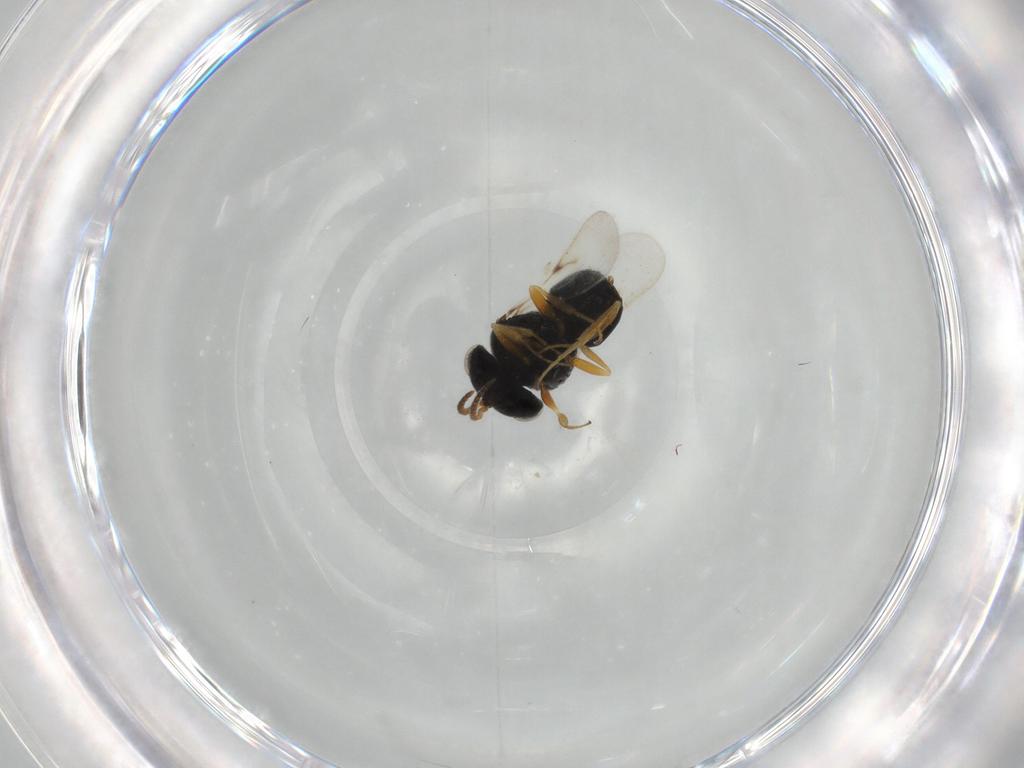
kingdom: Animalia
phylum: Arthropoda
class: Insecta
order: Hymenoptera
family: Scelionidae
